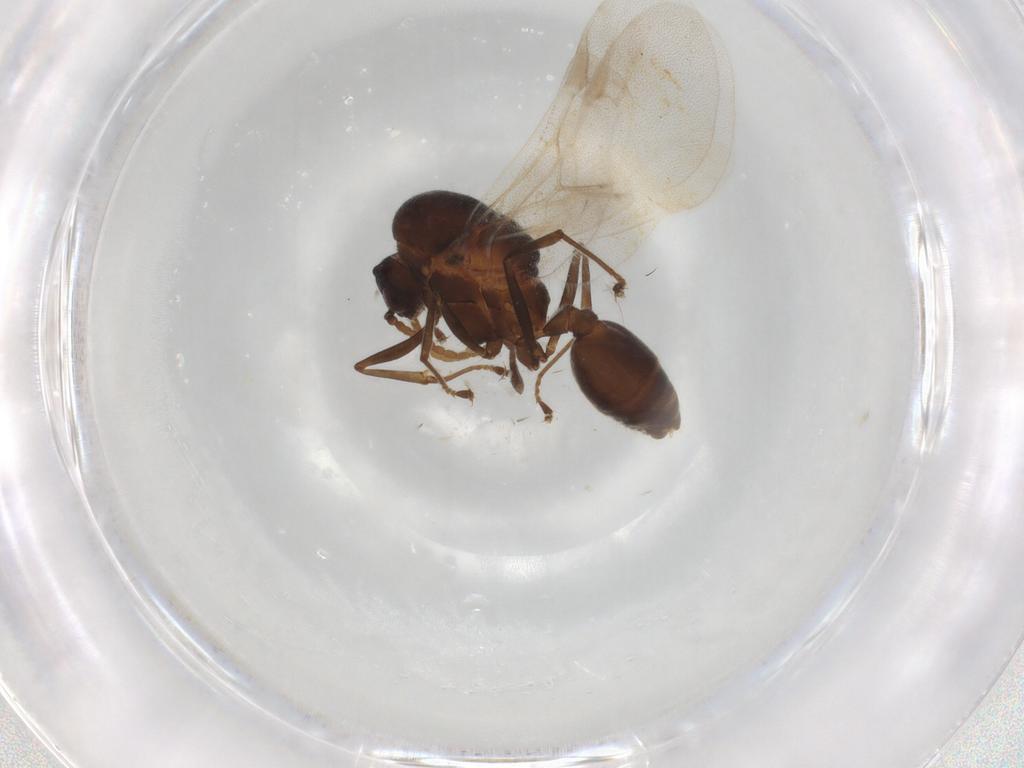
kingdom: Animalia
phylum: Arthropoda
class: Insecta
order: Hymenoptera
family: Formicidae
